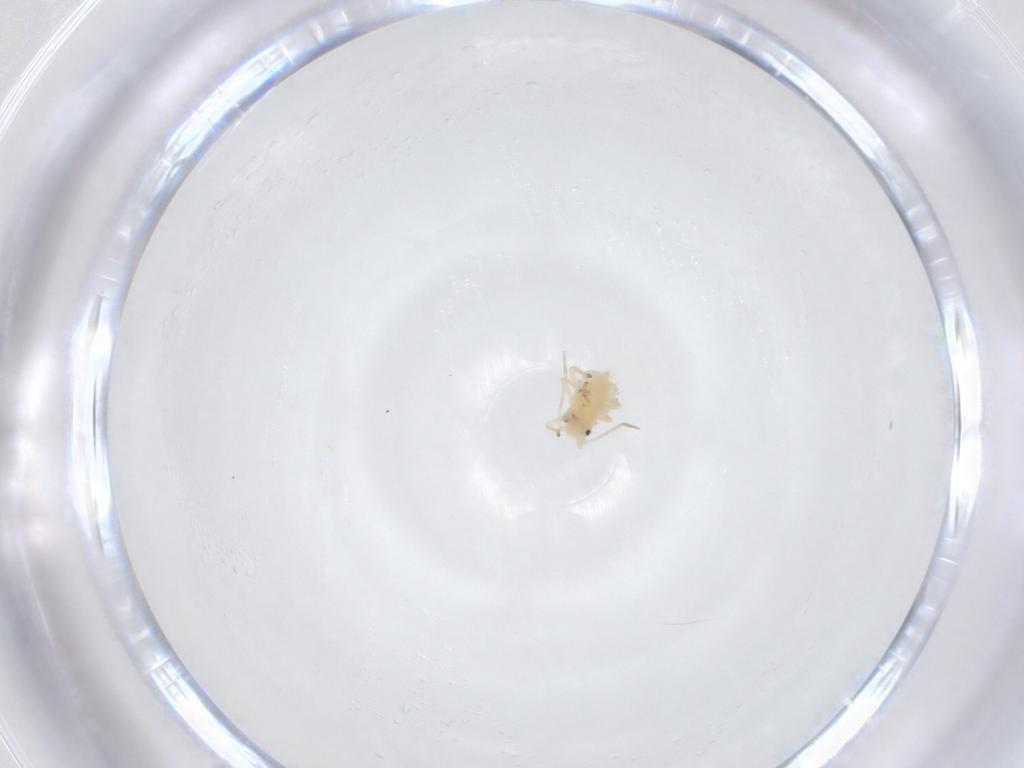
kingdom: Animalia
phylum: Arthropoda
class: Insecta
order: Hemiptera
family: Aphididae
